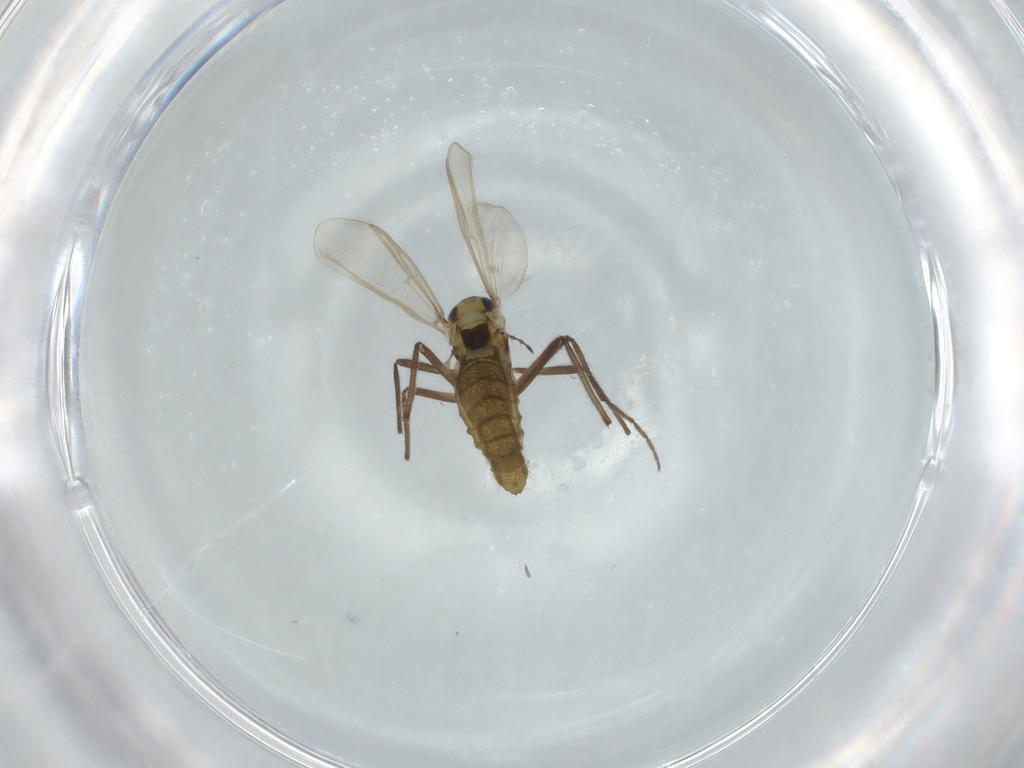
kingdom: Animalia
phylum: Arthropoda
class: Insecta
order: Diptera
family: Chironomidae
